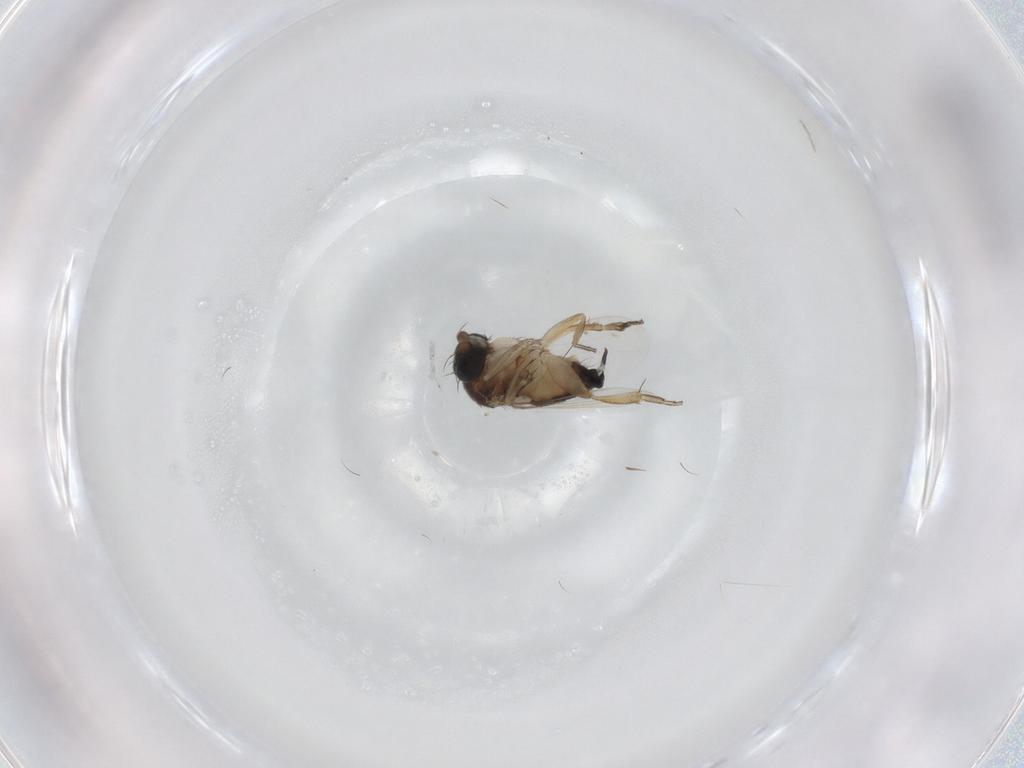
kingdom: Animalia
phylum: Arthropoda
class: Insecta
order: Diptera
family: Phoridae
